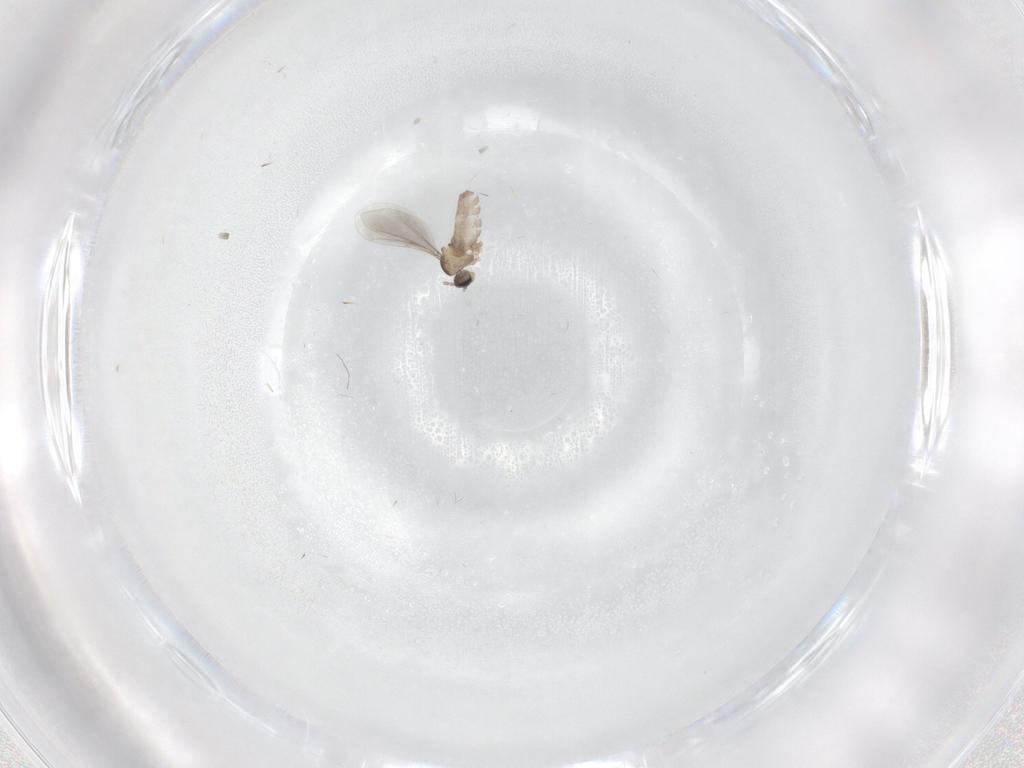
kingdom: Animalia
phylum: Arthropoda
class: Insecta
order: Diptera
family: Cecidomyiidae
